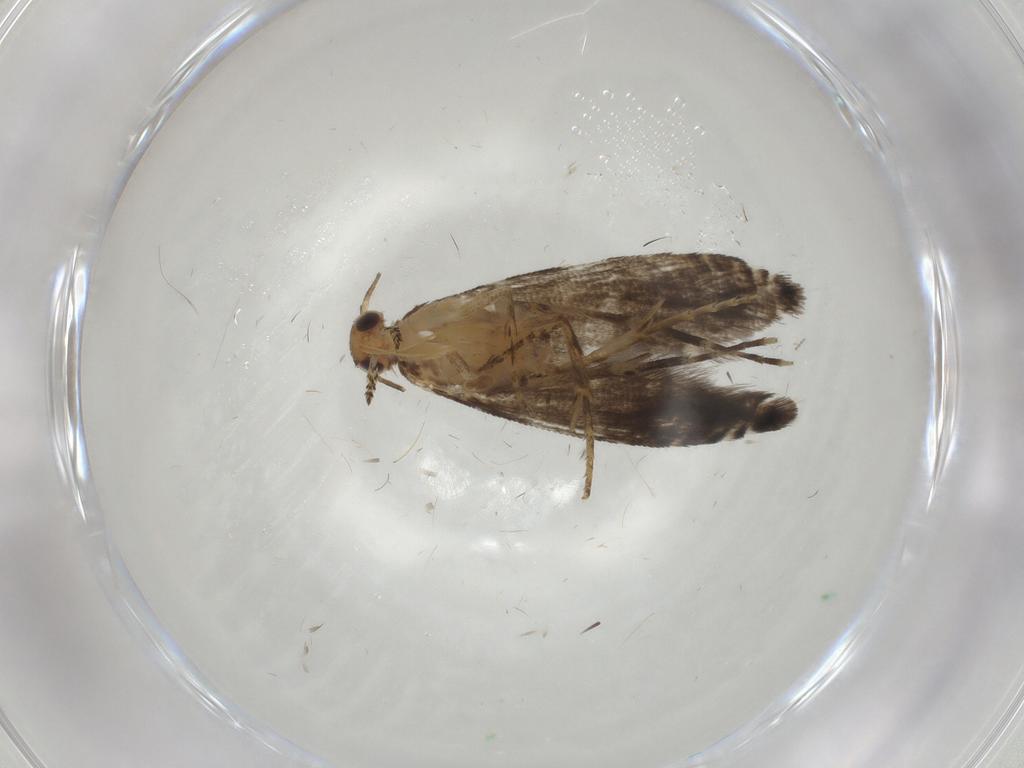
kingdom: Animalia
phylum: Arthropoda
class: Insecta
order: Lepidoptera
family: Glyphipterigidae
